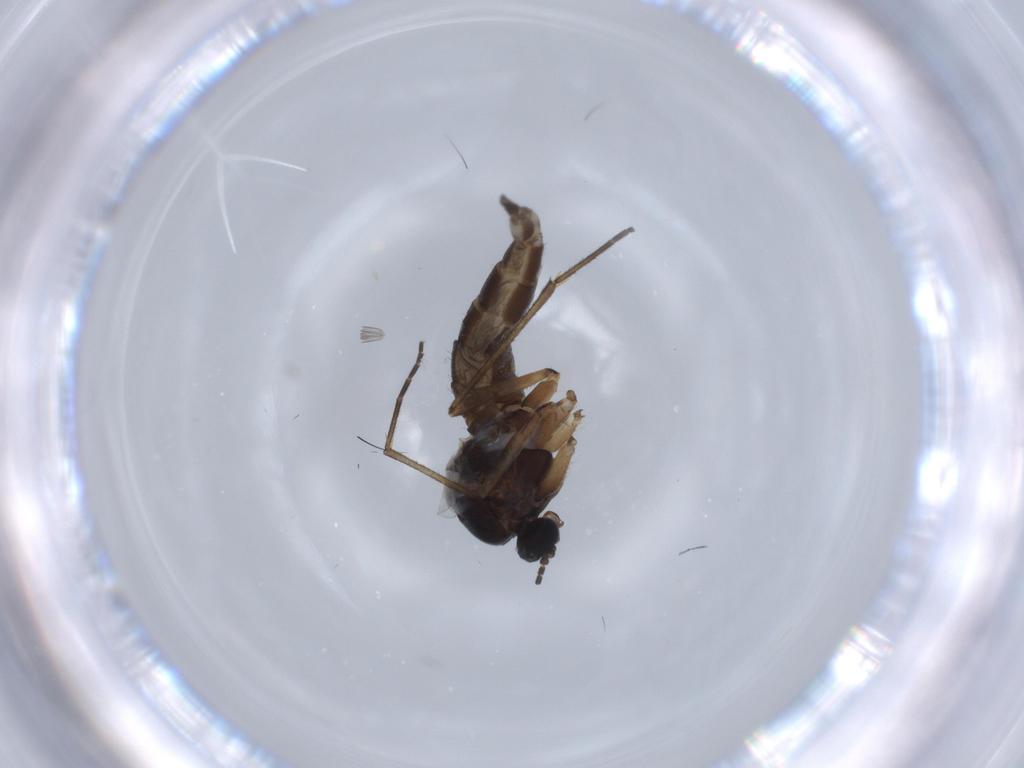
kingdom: Animalia
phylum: Arthropoda
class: Insecta
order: Diptera
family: Sciaridae
